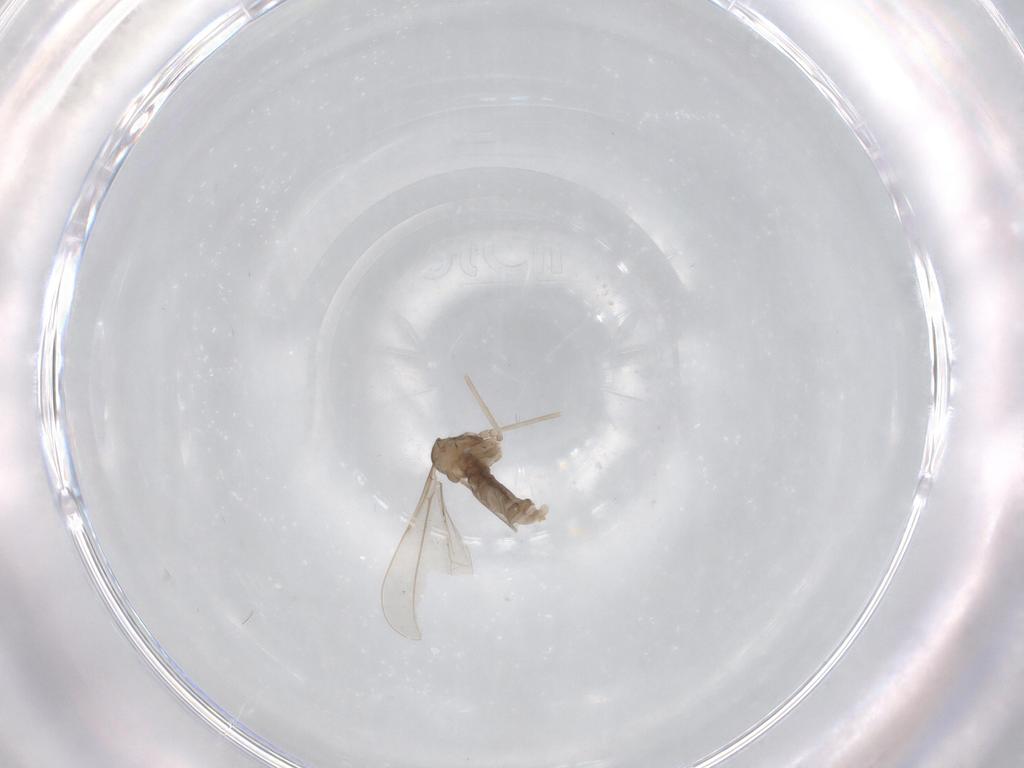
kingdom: Animalia
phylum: Arthropoda
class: Insecta
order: Diptera
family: Cecidomyiidae
